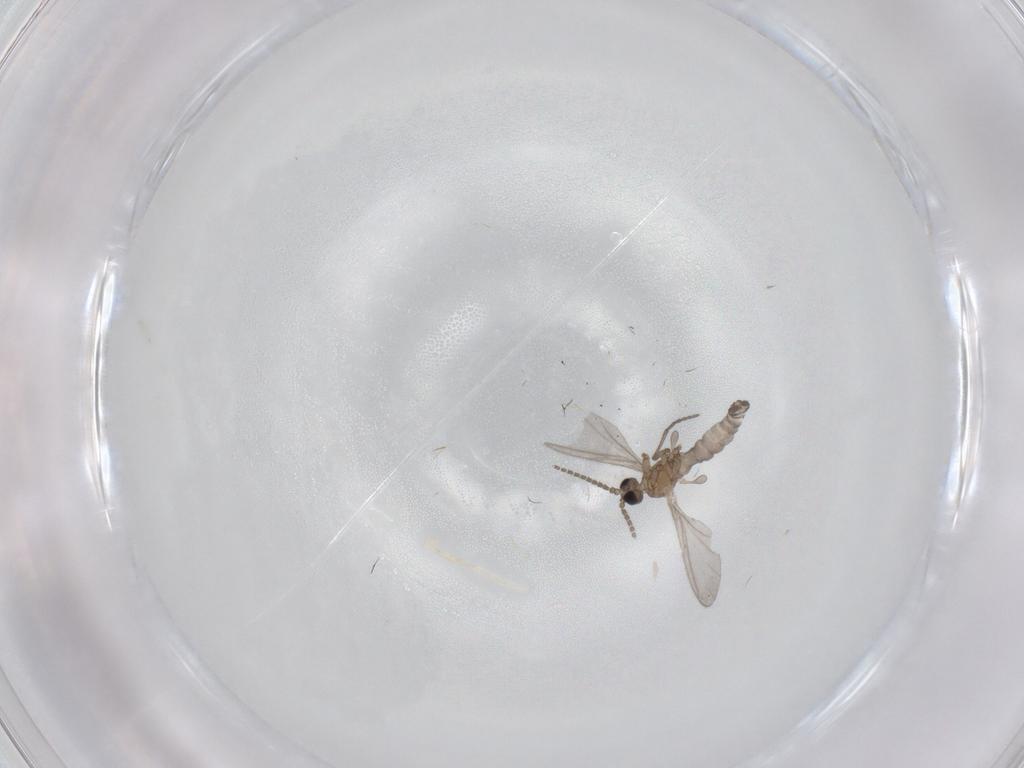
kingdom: Animalia
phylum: Arthropoda
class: Insecta
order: Diptera
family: Sciaridae
